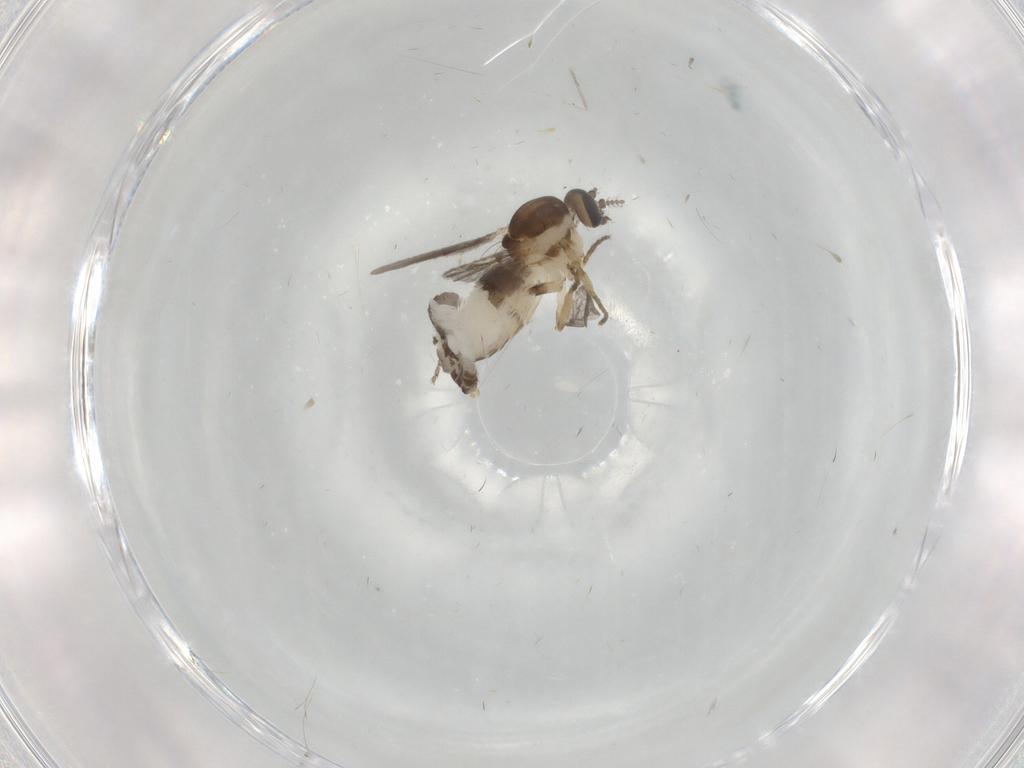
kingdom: Animalia
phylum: Arthropoda
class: Insecta
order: Diptera
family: Ceratopogonidae
